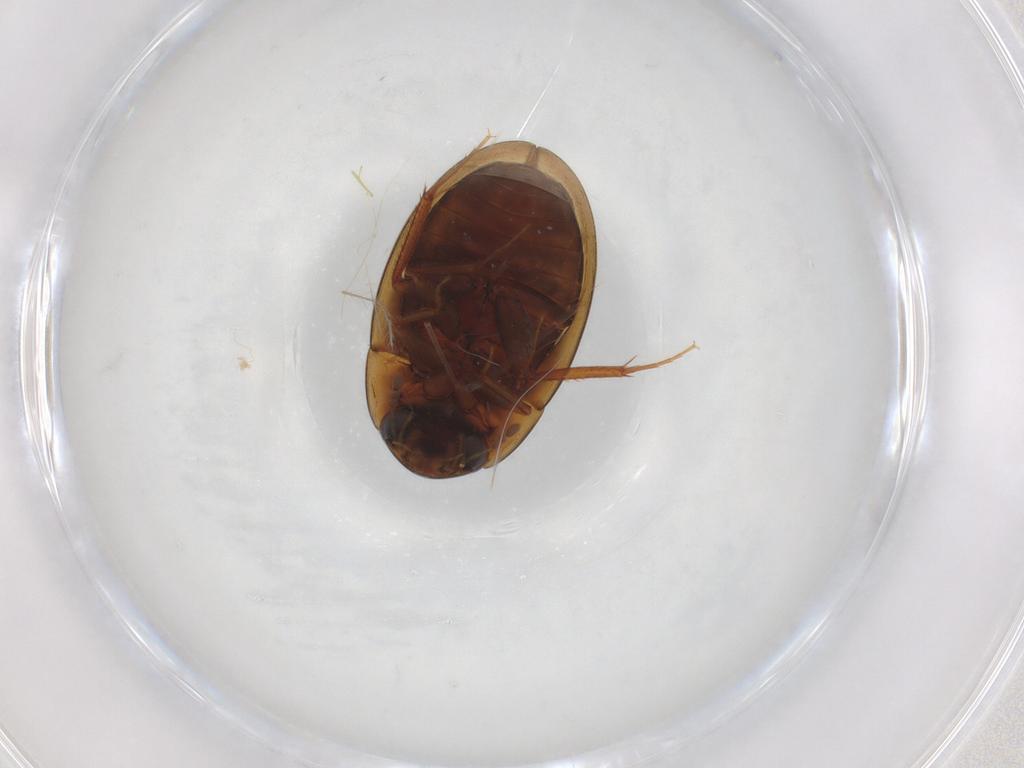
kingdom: Animalia
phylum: Arthropoda
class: Insecta
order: Coleoptera
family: Hydrophilidae
